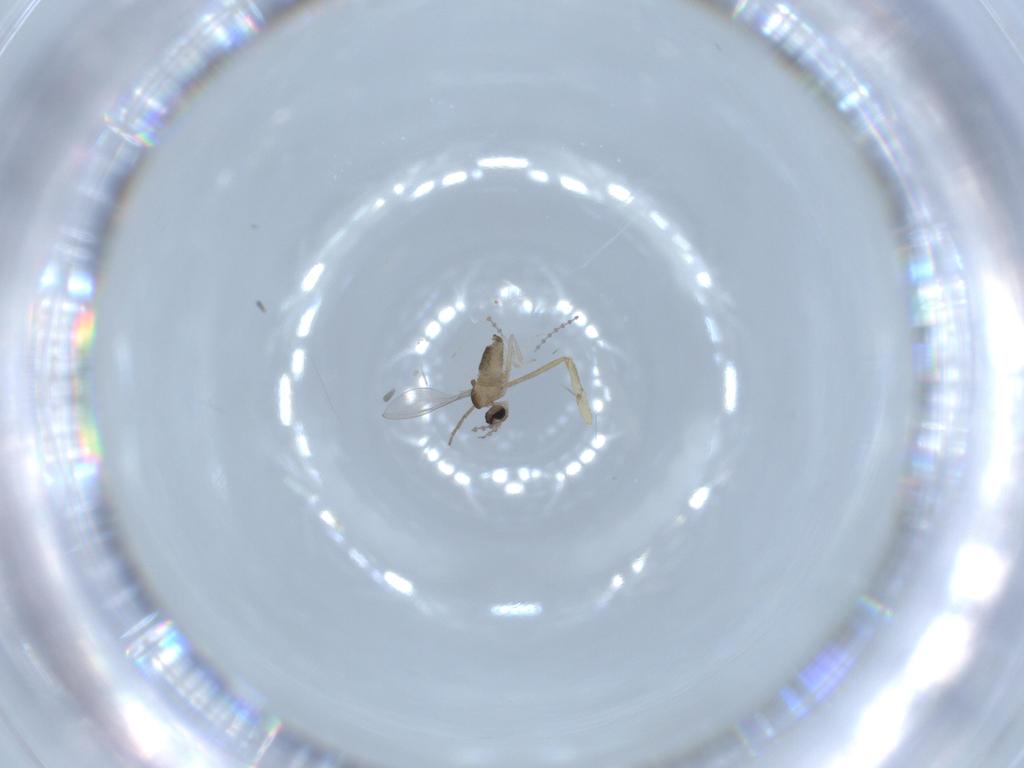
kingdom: Animalia
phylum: Arthropoda
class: Insecta
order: Diptera
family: Cecidomyiidae
